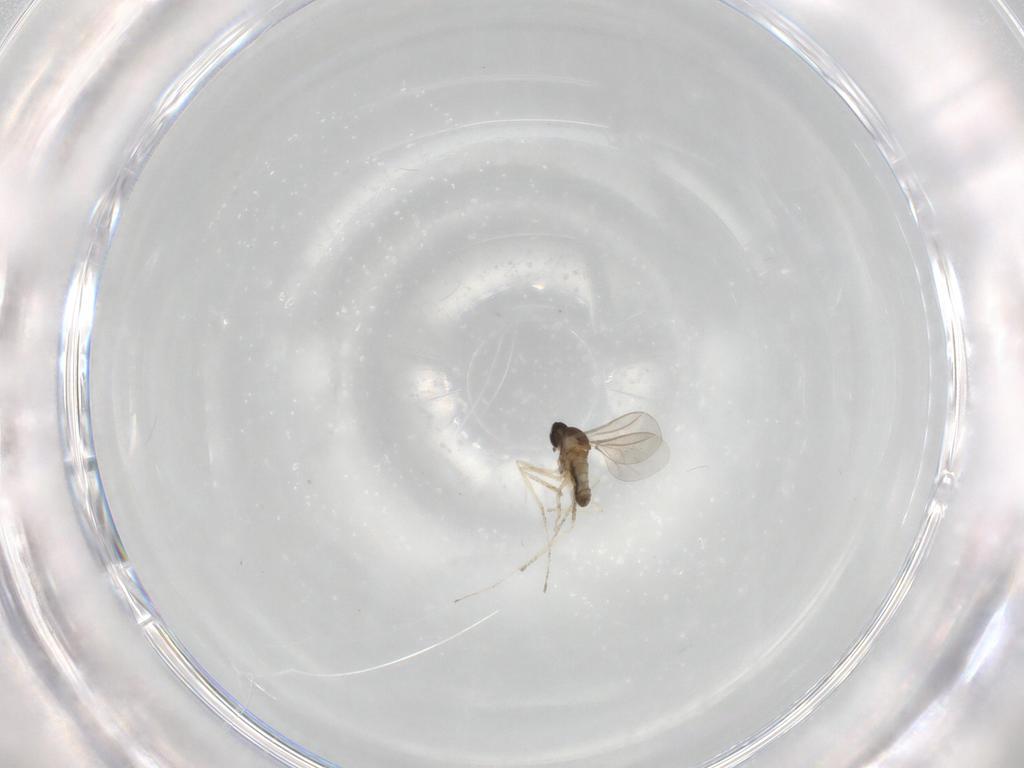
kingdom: Animalia
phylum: Arthropoda
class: Insecta
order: Diptera
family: Cecidomyiidae
